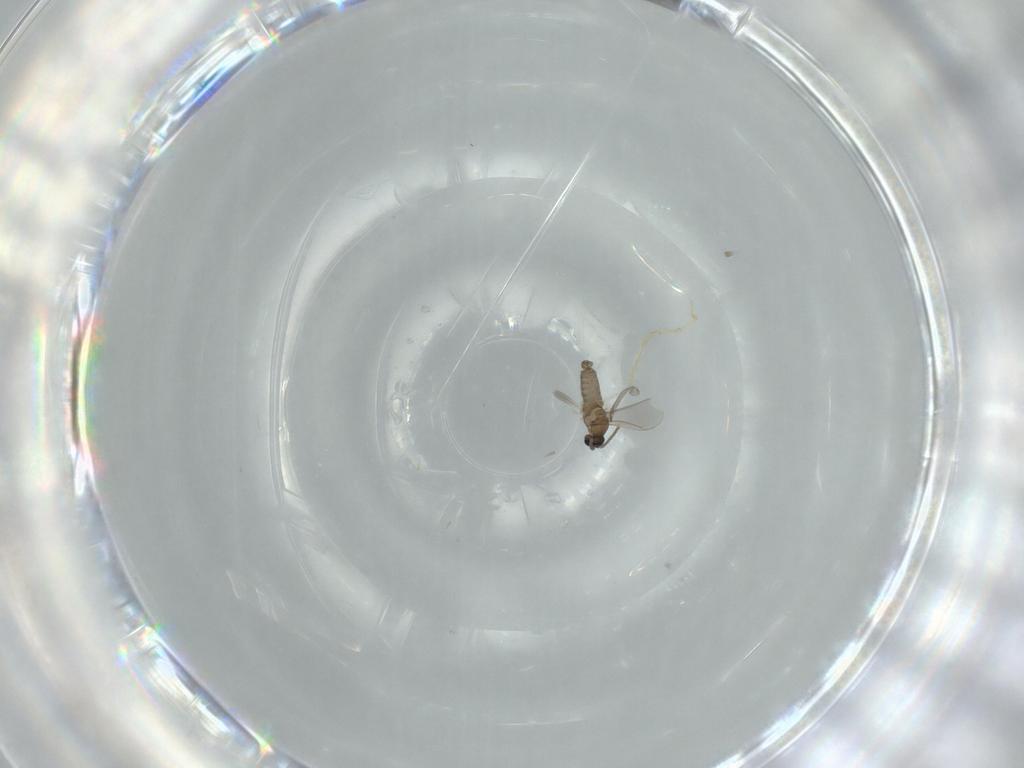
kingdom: Animalia
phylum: Arthropoda
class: Insecta
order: Diptera
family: Cecidomyiidae
